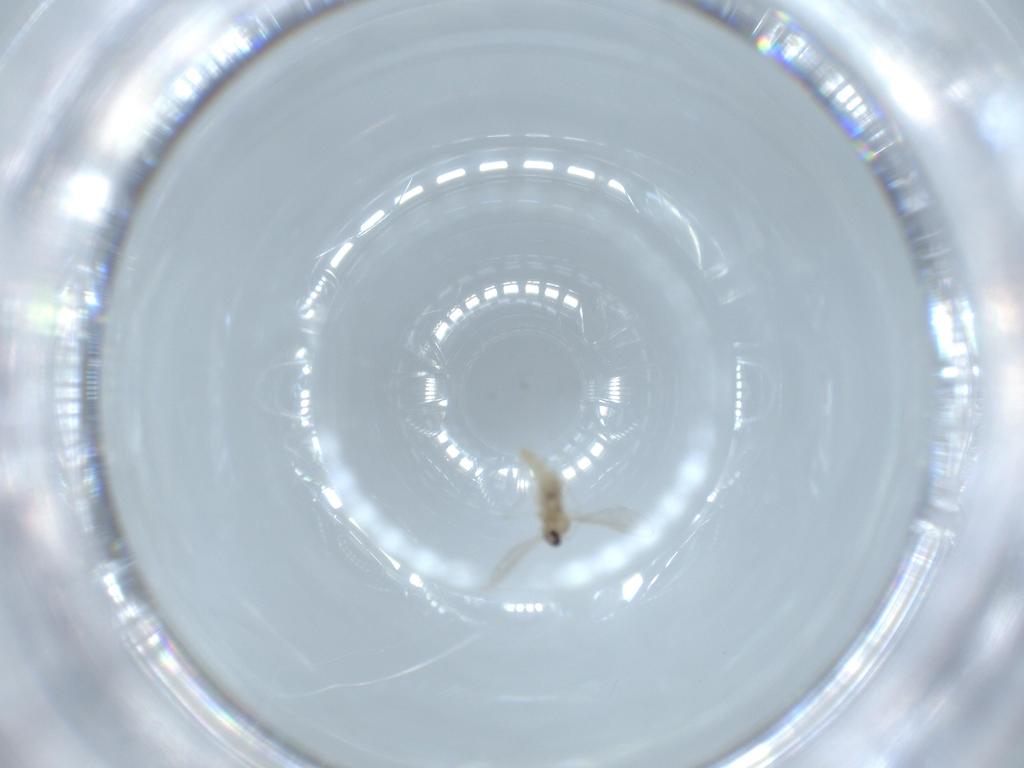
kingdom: Animalia
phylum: Arthropoda
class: Insecta
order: Diptera
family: Cecidomyiidae
